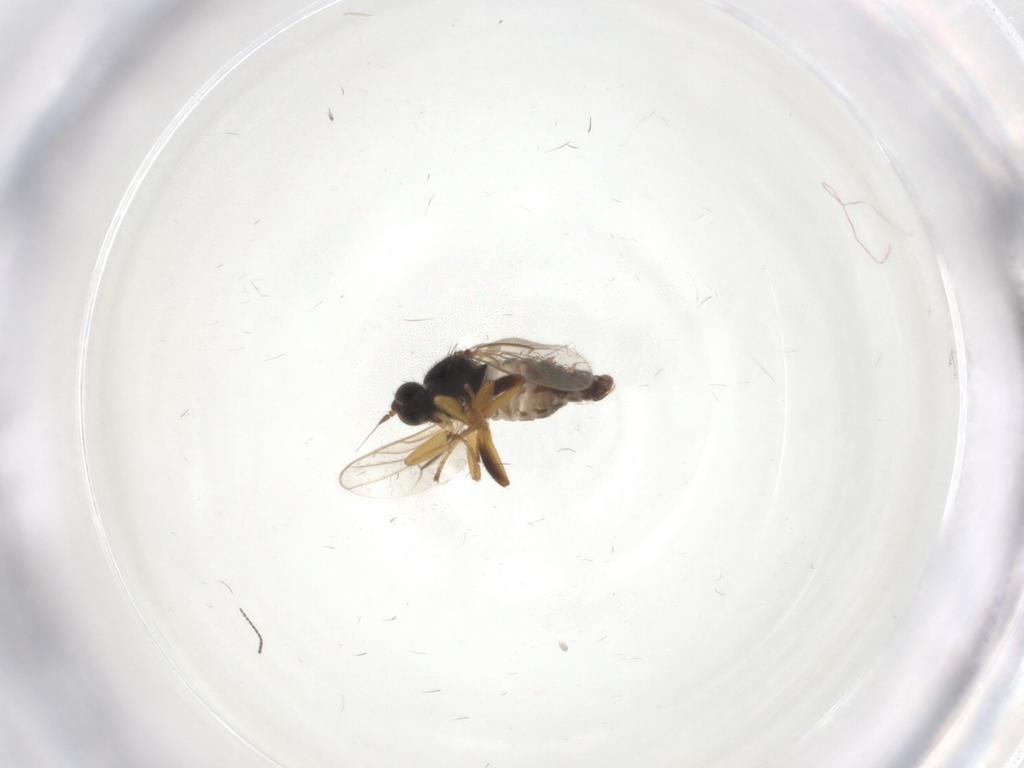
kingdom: Animalia
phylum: Arthropoda
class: Insecta
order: Diptera
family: Hybotidae
